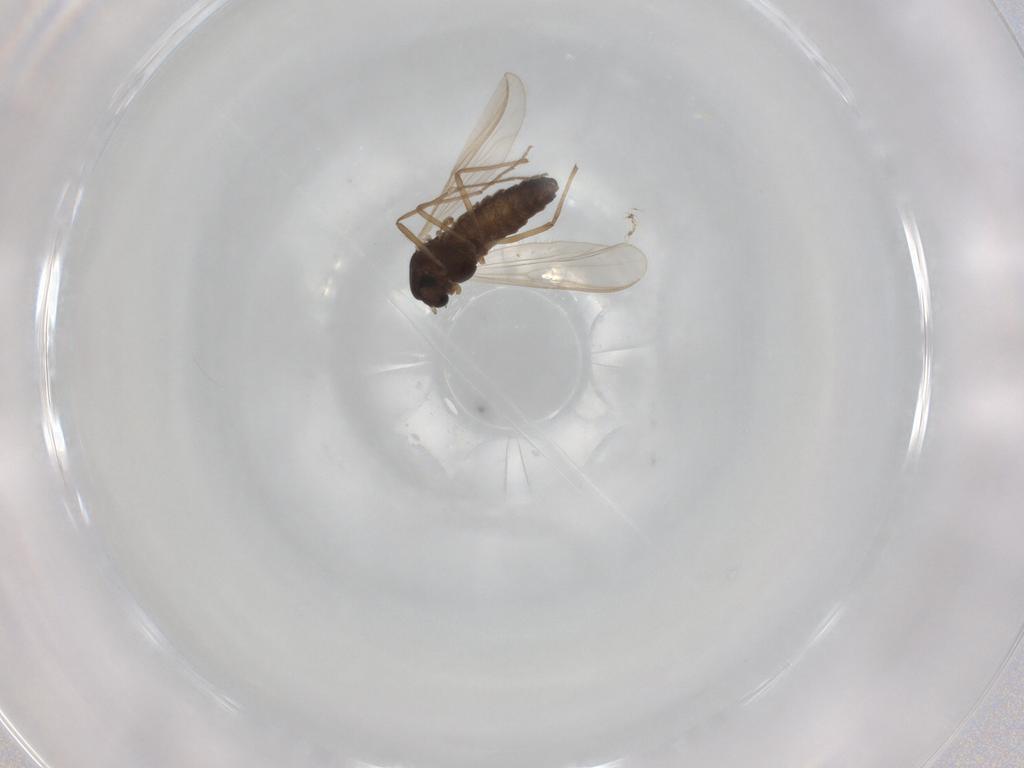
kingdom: Animalia
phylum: Arthropoda
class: Insecta
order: Diptera
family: Chironomidae
